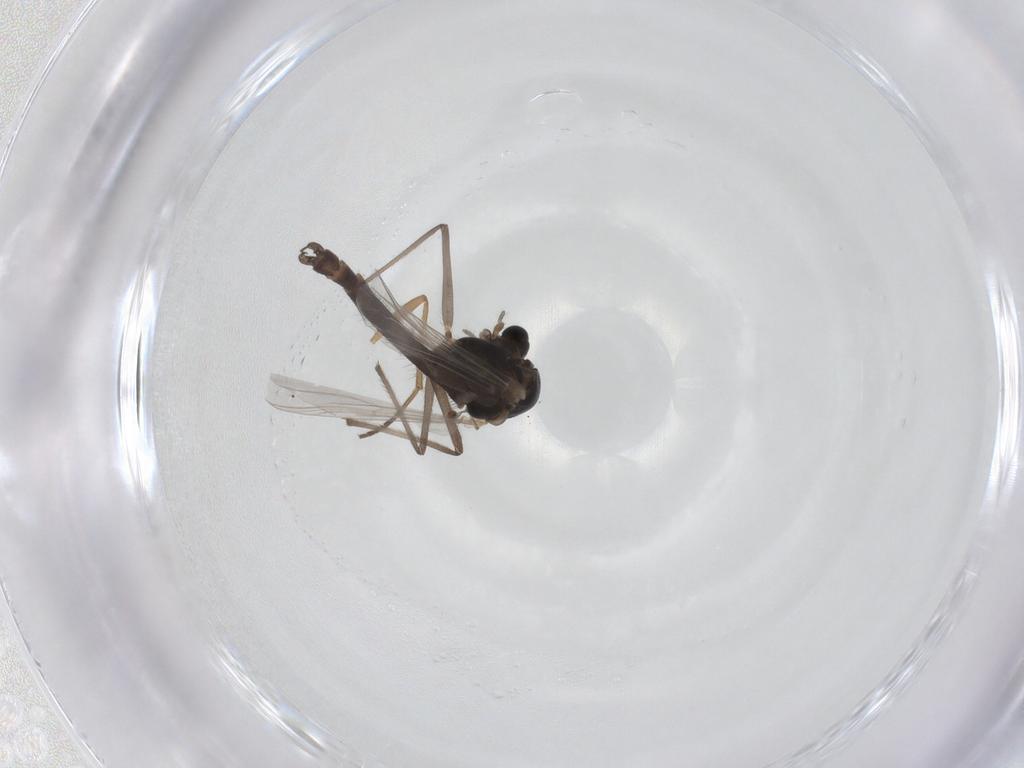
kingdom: Animalia
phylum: Arthropoda
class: Insecta
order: Diptera
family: Chironomidae
